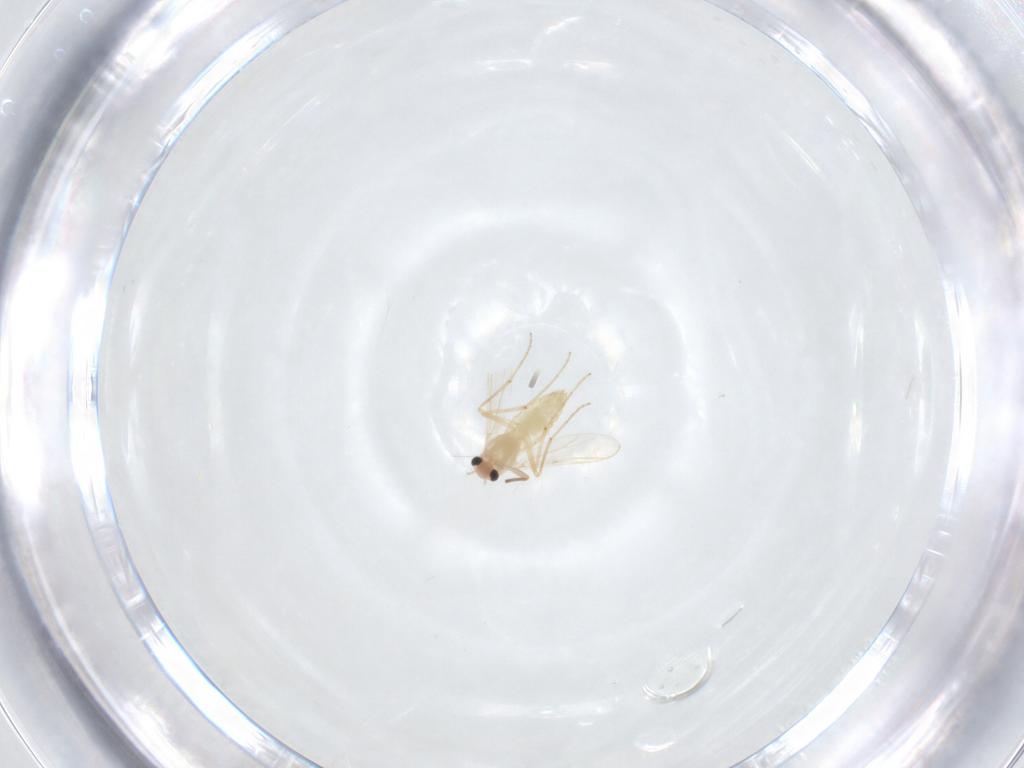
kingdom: Animalia
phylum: Arthropoda
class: Insecta
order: Diptera
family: Chironomidae
